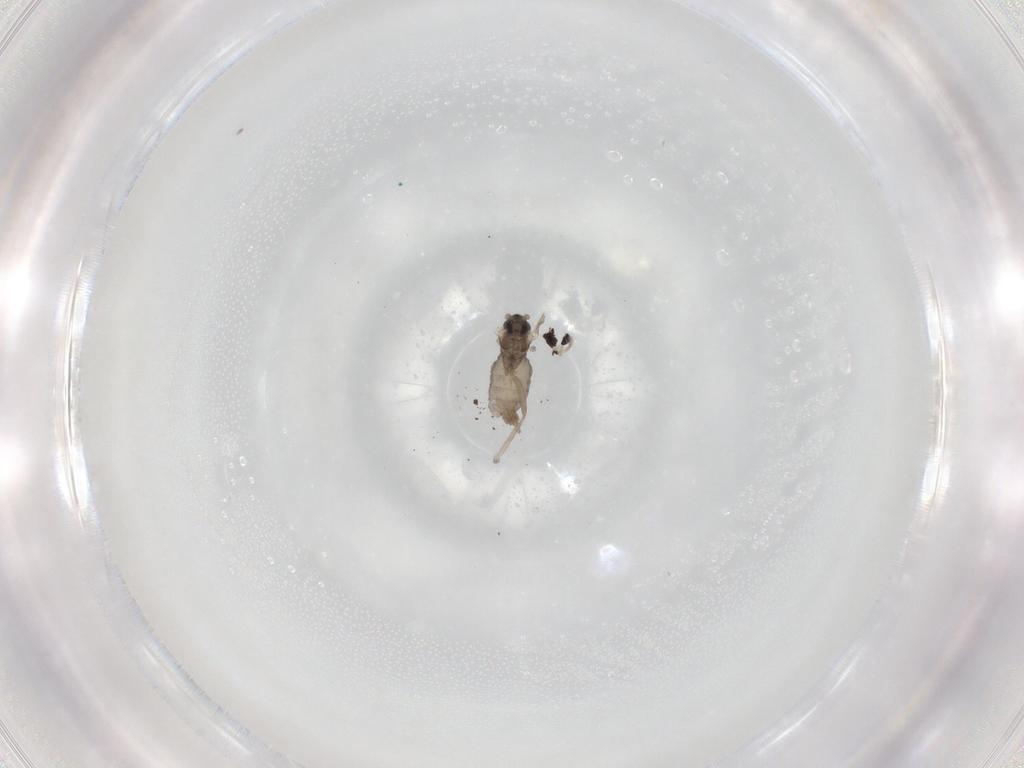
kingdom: Animalia
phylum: Arthropoda
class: Insecta
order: Diptera
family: Cecidomyiidae
